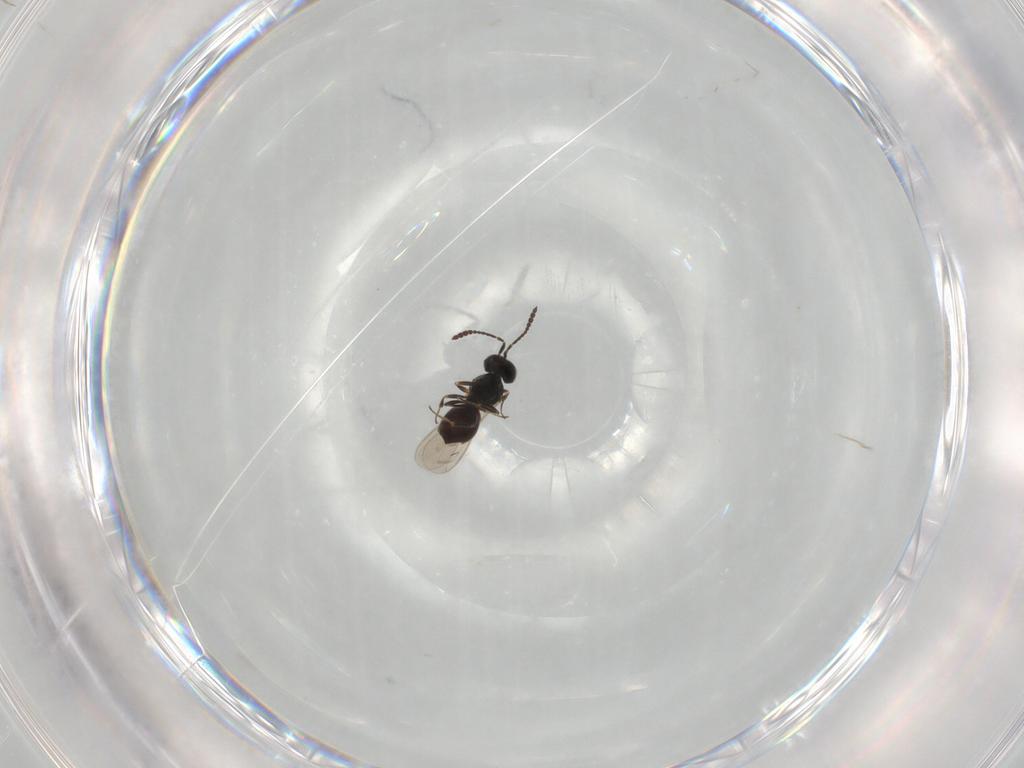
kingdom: Animalia
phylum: Arthropoda
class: Insecta
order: Hymenoptera
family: Scelionidae
